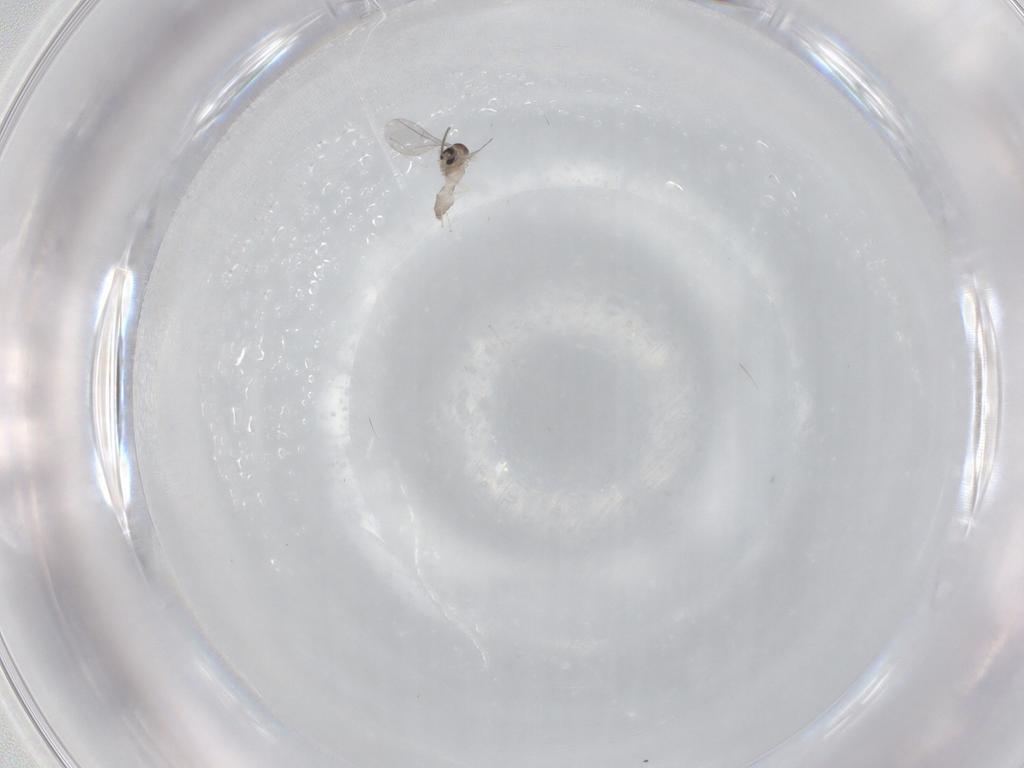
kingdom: Animalia
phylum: Arthropoda
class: Insecta
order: Diptera
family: Cecidomyiidae
